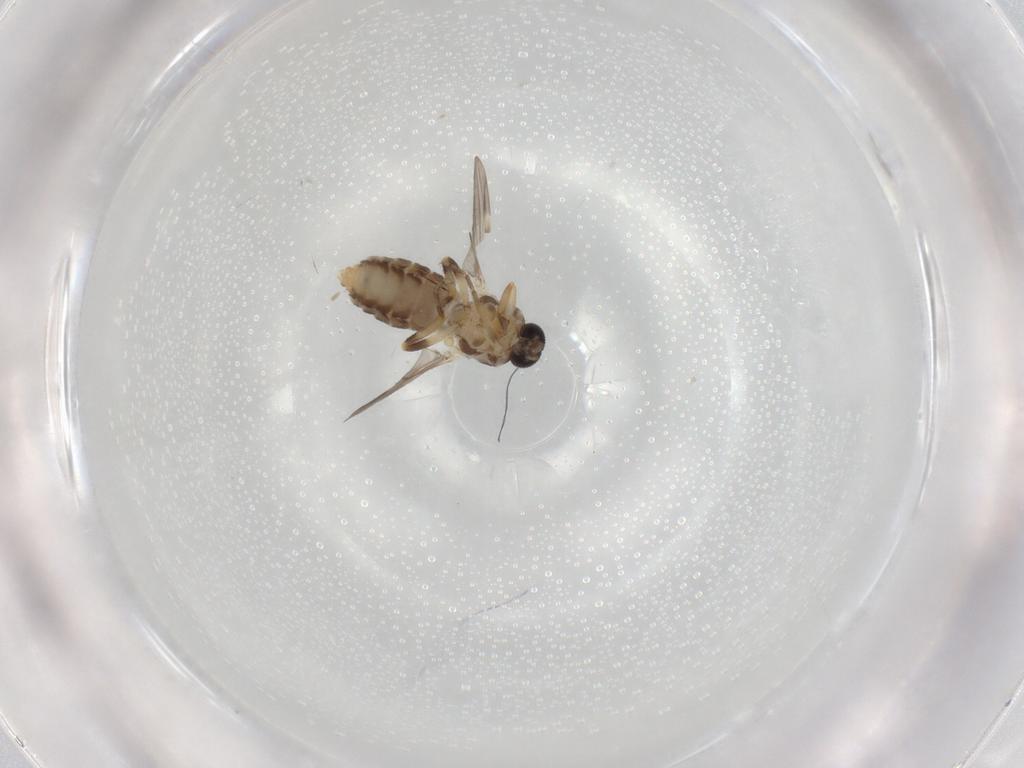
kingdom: Animalia
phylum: Arthropoda
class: Insecta
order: Diptera
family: Ceratopogonidae
